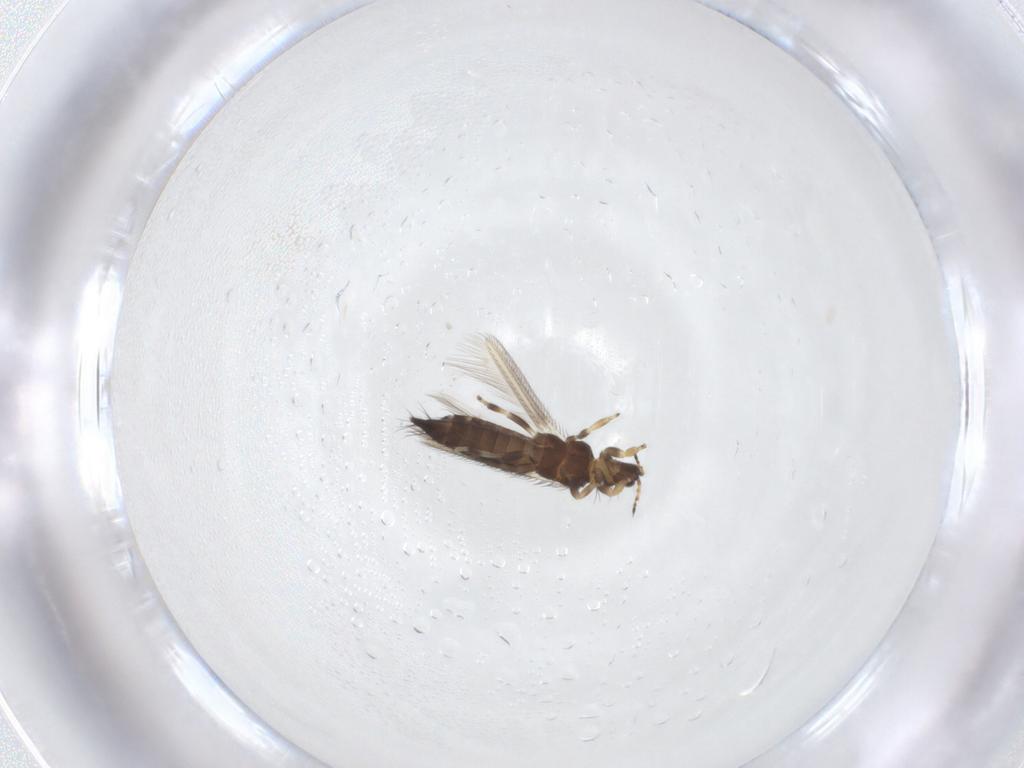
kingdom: Animalia
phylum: Arthropoda
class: Insecta
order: Thysanoptera
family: Thripidae
